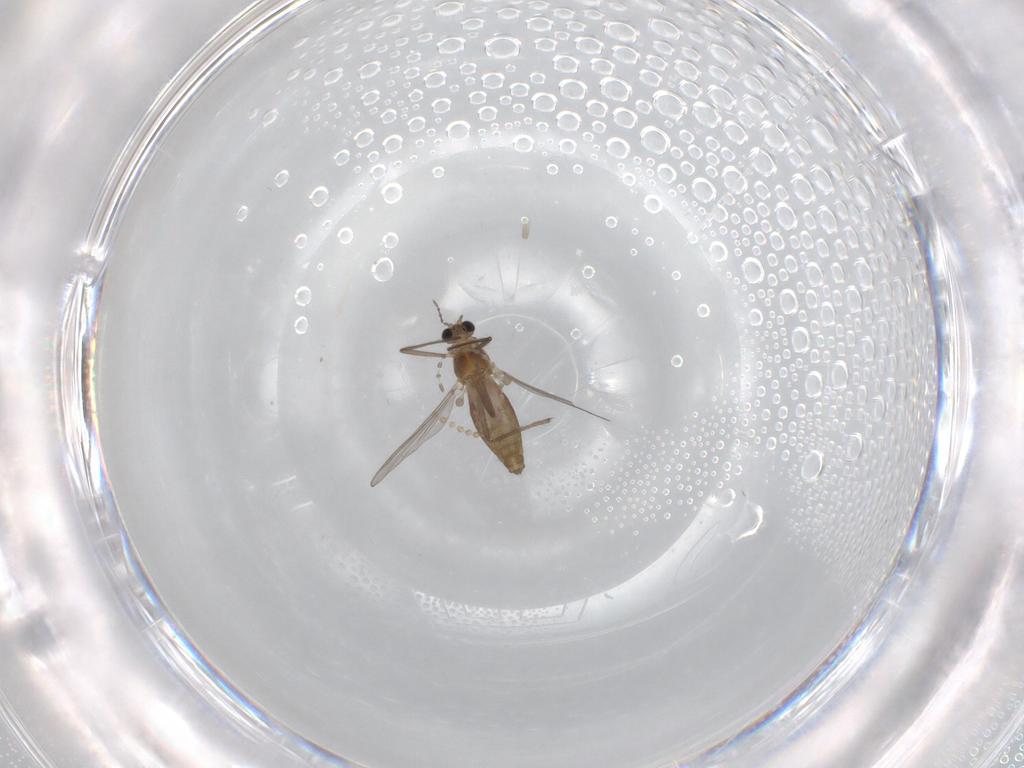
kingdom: Animalia
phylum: Arthropoda
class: Insecta
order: Diptera
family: Chironomidae
